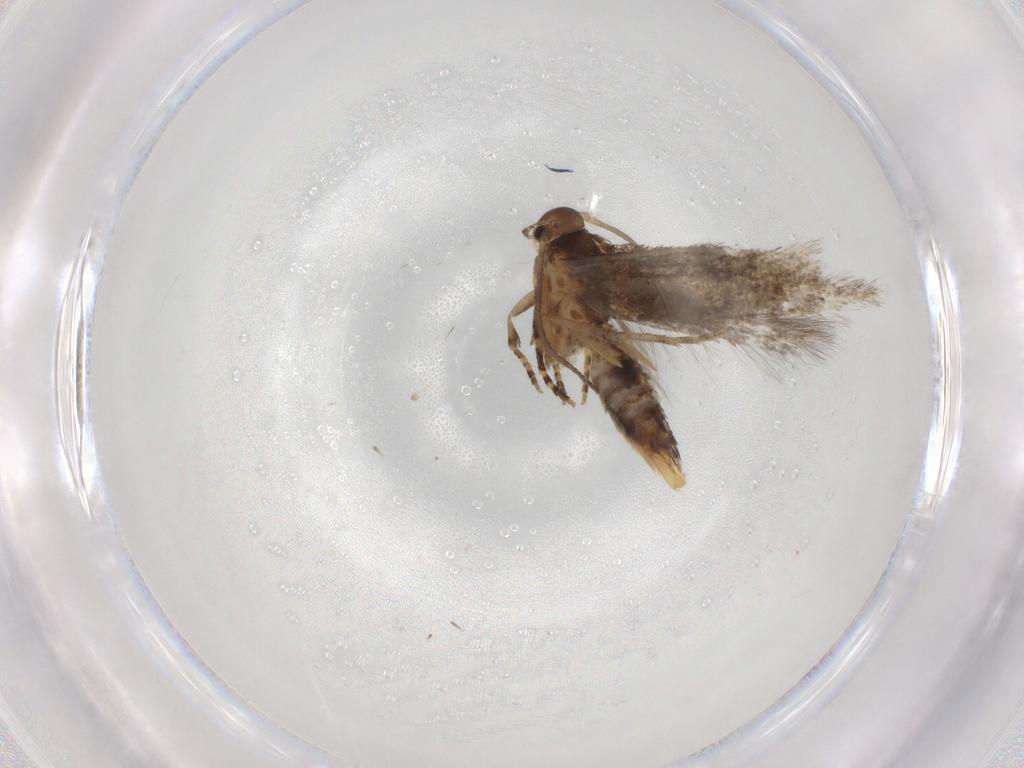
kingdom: Animalia
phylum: Arthropoda
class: Insecta
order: Lepidoptera
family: Elachistidae
